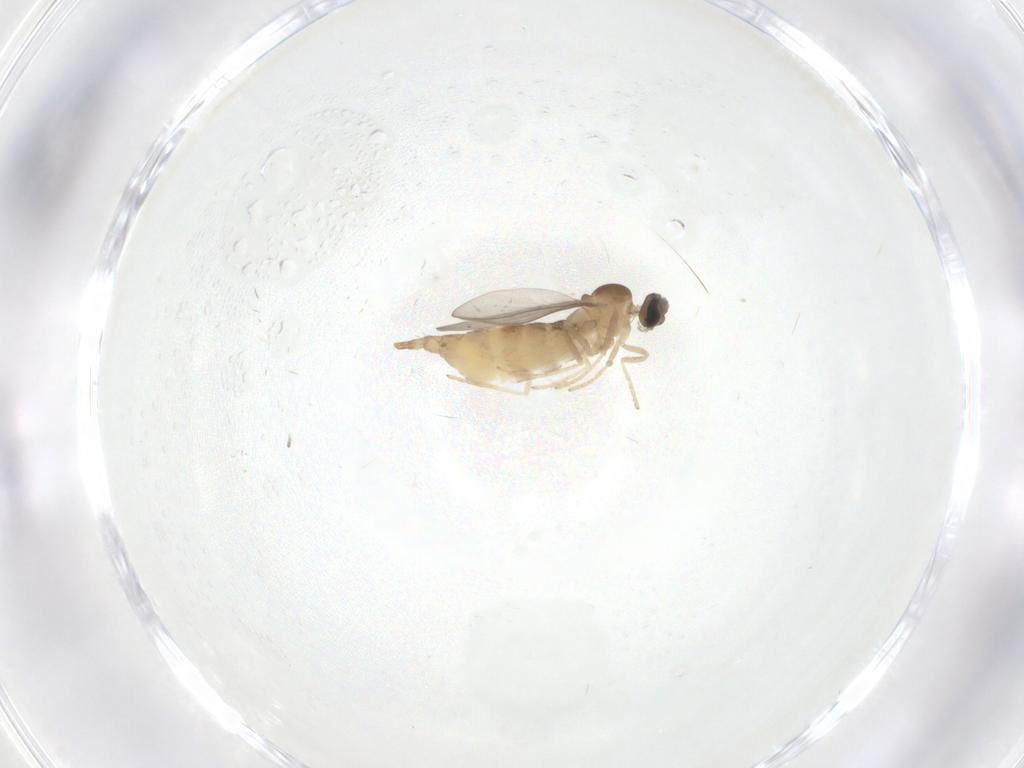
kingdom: Animalia
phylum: Arthropoda
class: Insecta
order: Diptera
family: Cecidomyiidae
